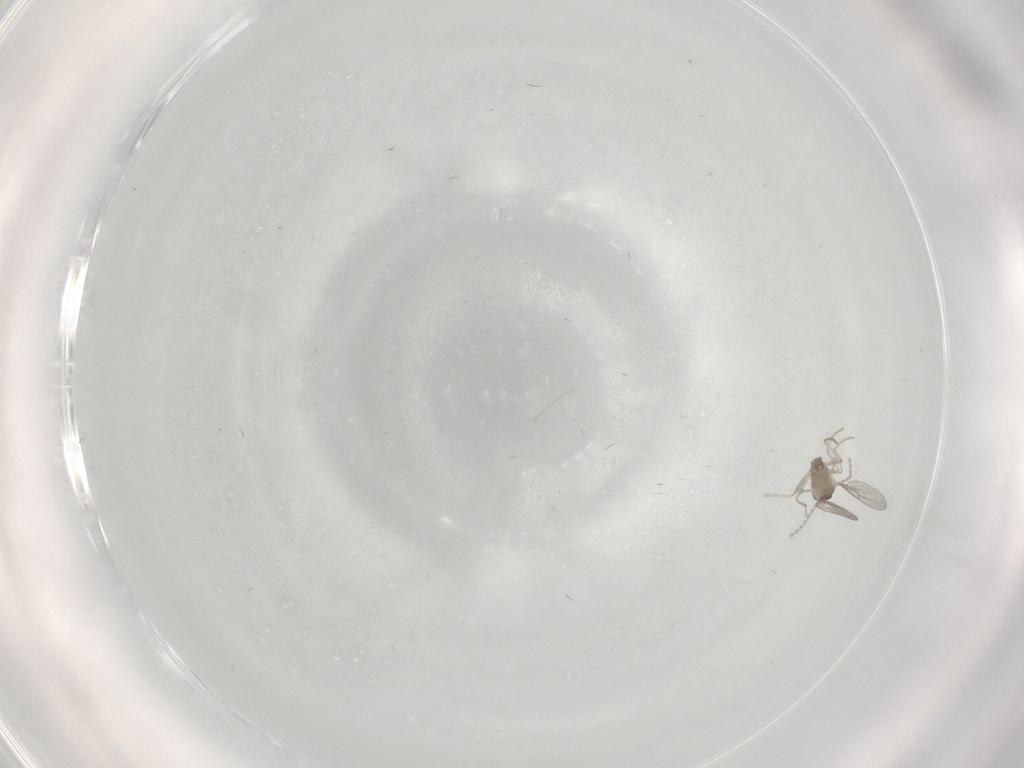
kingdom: Animalia
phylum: Arthropoda
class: Insecta
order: Diptera
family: Cecidomyiidae
